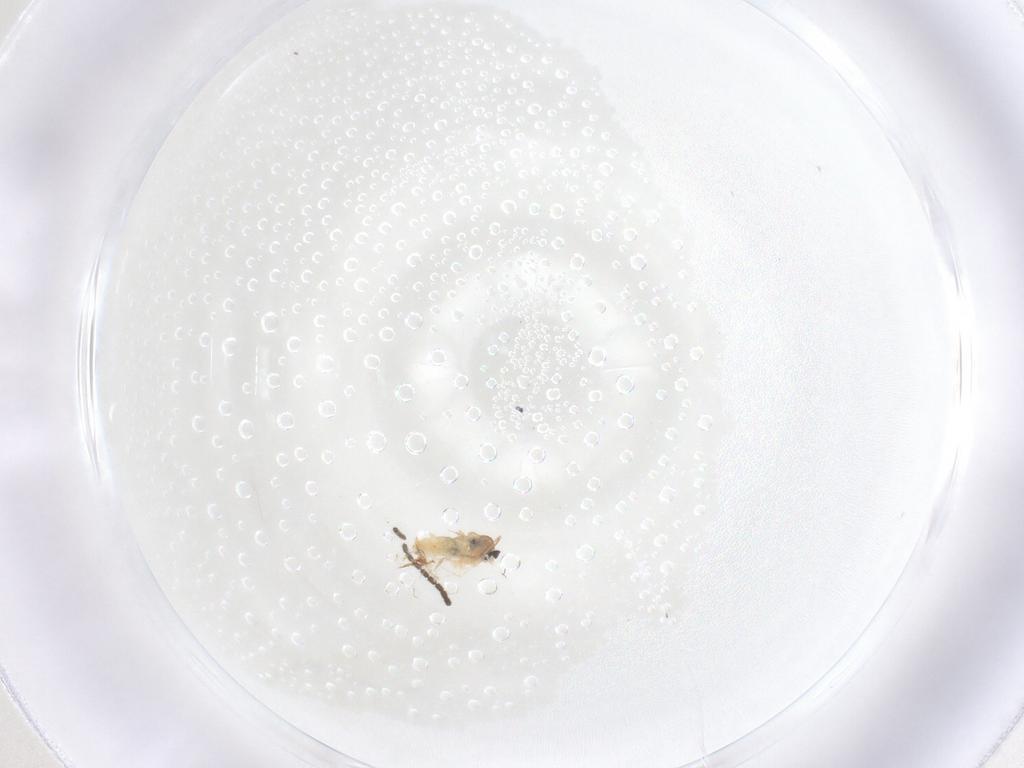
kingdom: Animalia
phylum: Arthropoda
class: Insecta
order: Diptera
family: Cecidomyiidae
